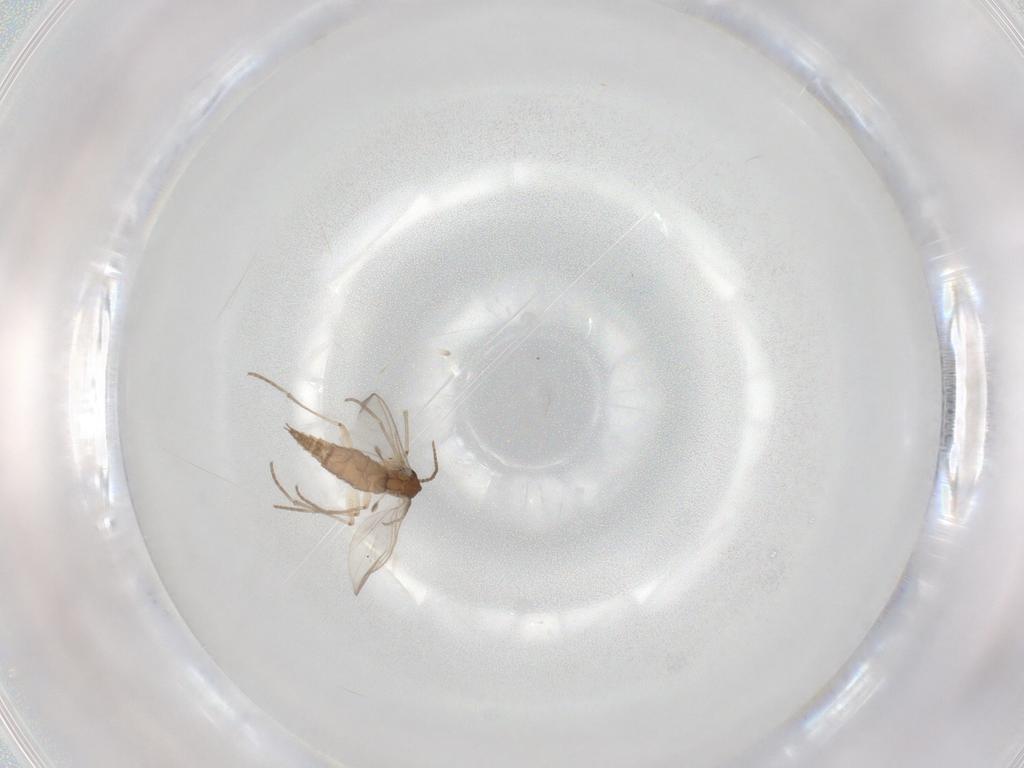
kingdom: Animalia
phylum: Arthropoda
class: Insecta
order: Diptera
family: Sciaridae
